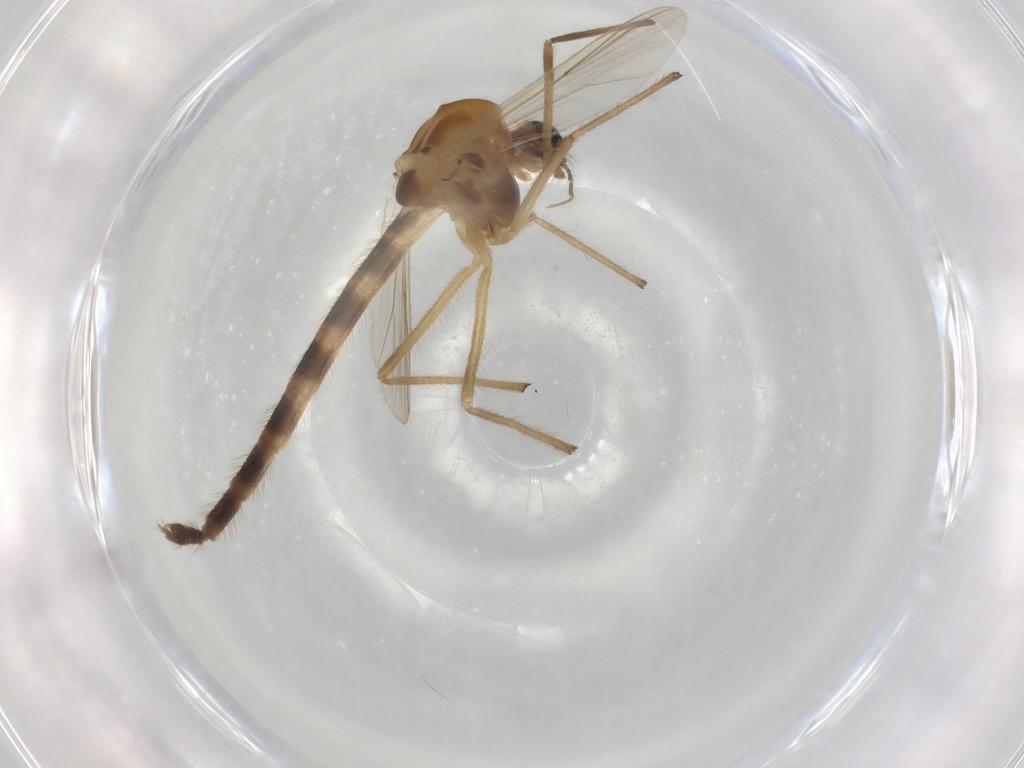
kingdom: Animalia
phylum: Arthropoda
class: Insecta
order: Diptera
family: Chironomidae
